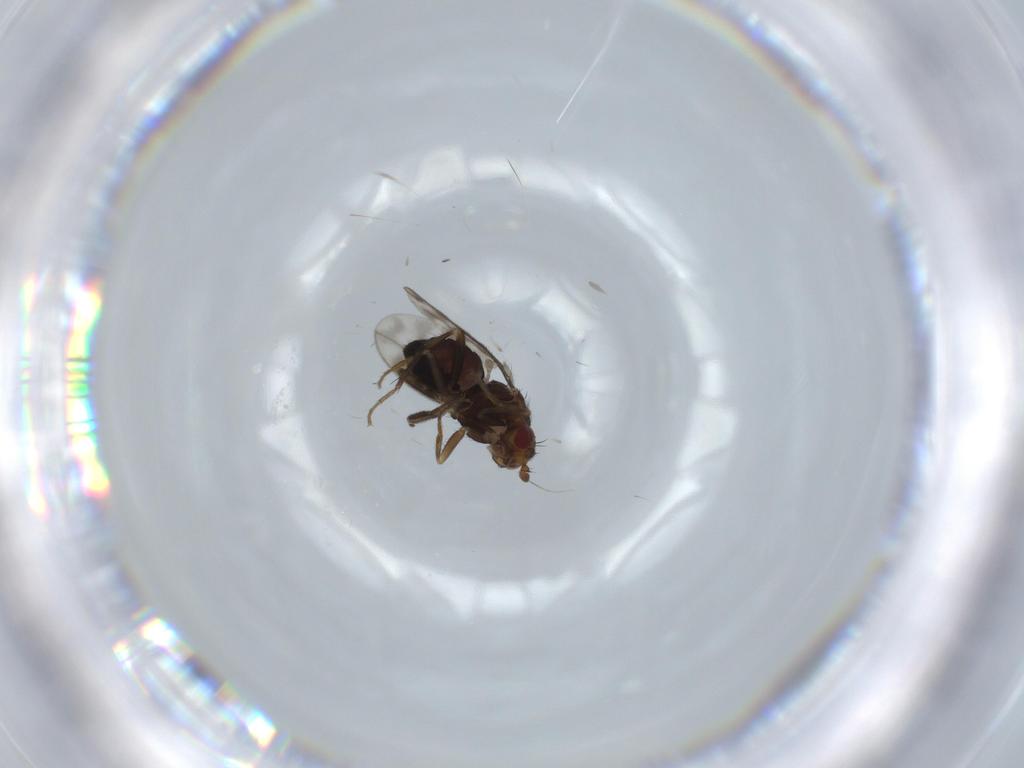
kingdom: Animalia
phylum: Arthropoda
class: Insecta
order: Diptera
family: Sphaeroceridae
